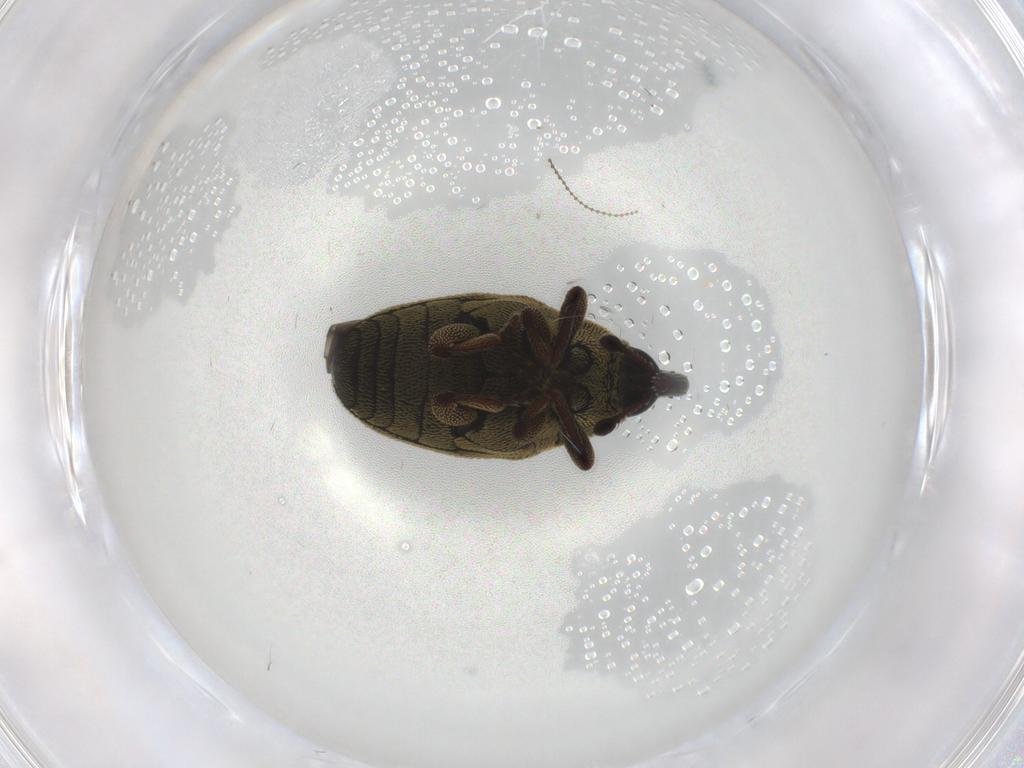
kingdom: Animalia
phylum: Arthropoda
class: Insecta
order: Coleoptera
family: Curculionidae
